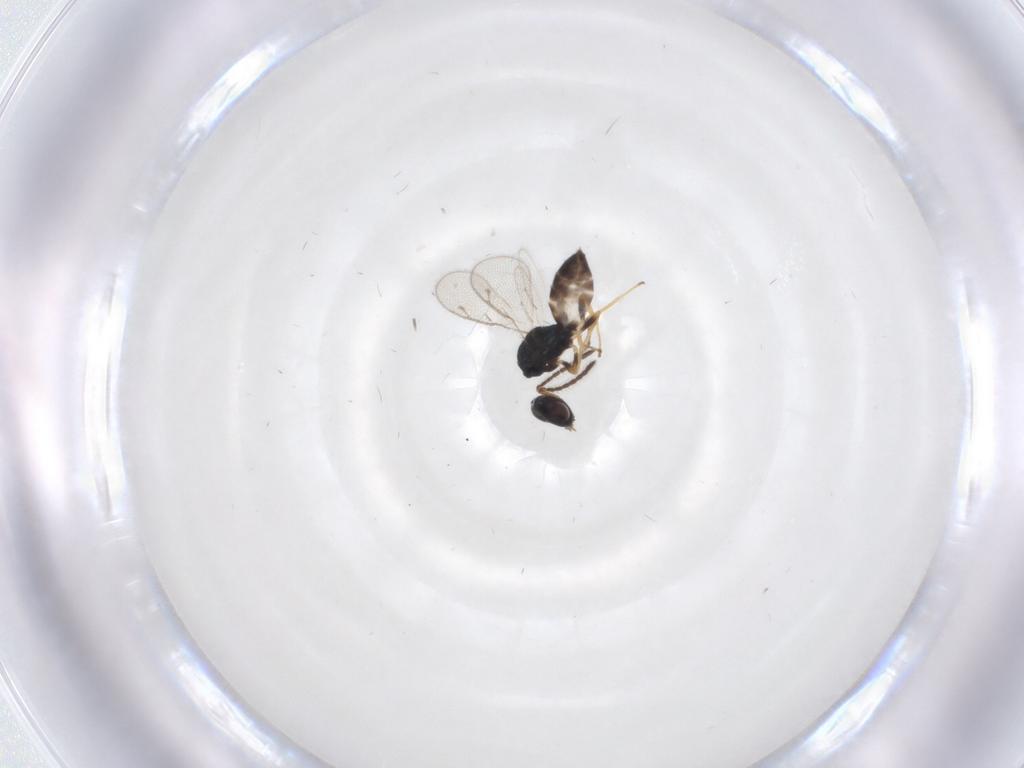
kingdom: Animalia
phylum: Arthropoda
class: Insecta
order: Hymenoptera
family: Pteromalidae
